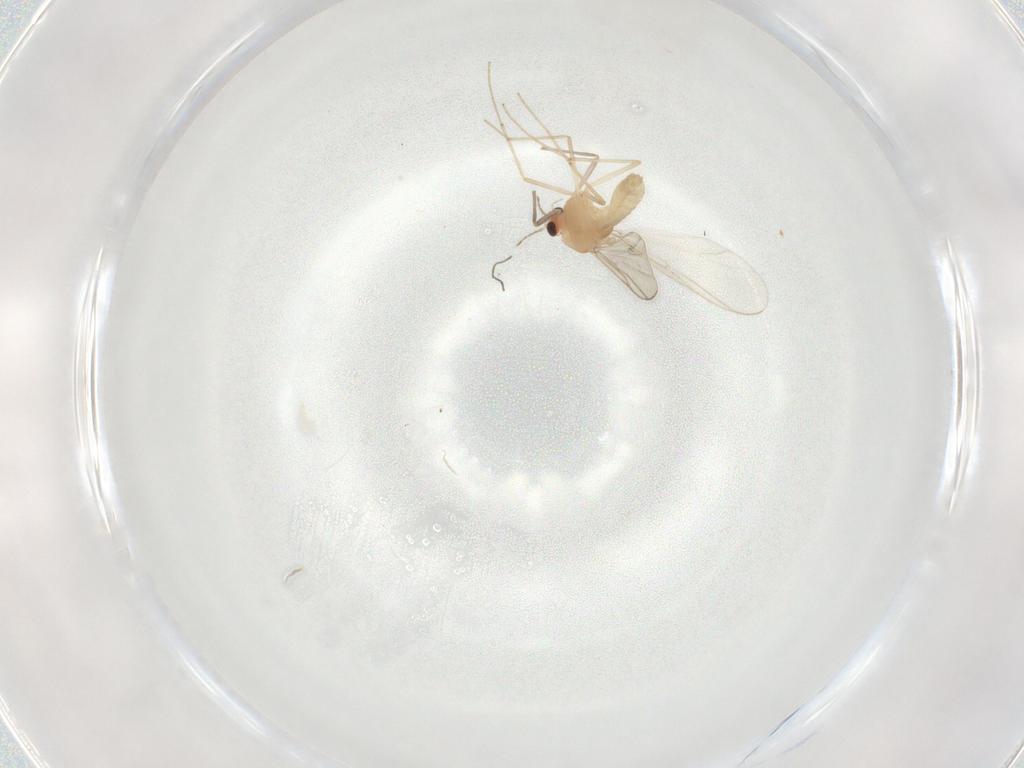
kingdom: Animalia
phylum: Arthropoda
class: Insecta
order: Diptera
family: Chironomidae
